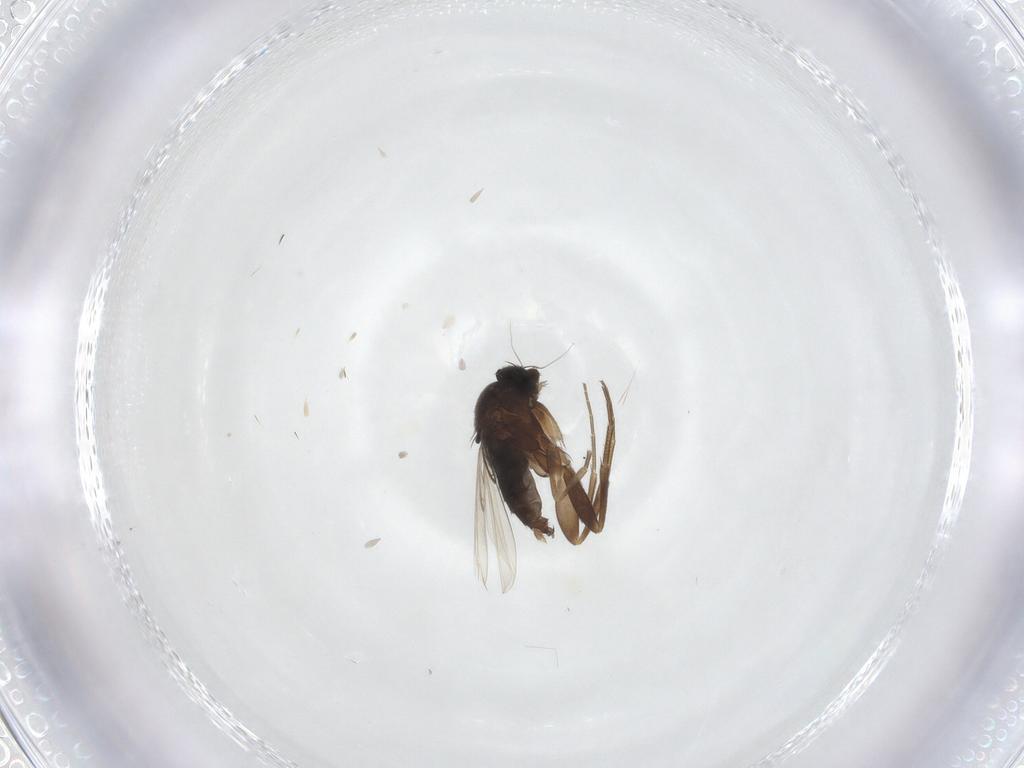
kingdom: Animalia
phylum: Arthropoda
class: Insecta
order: Diptera
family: Phoridae
